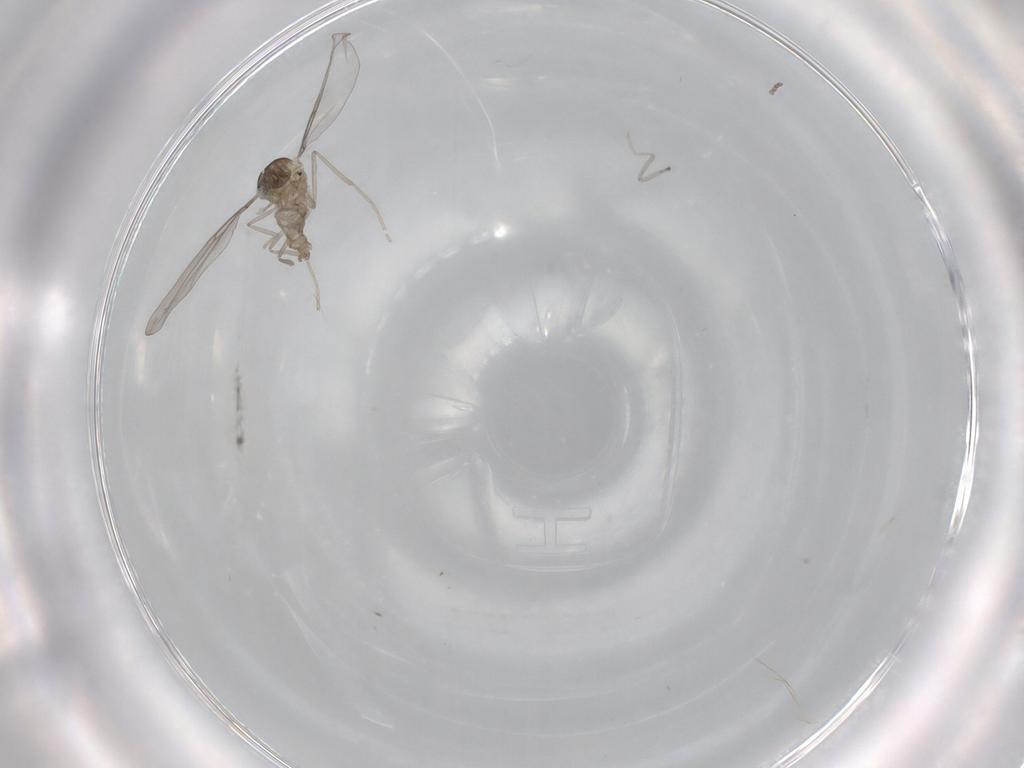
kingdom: Animalia
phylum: Arthropoda
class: Insecta
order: Diptera
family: Cecidomyiidae
